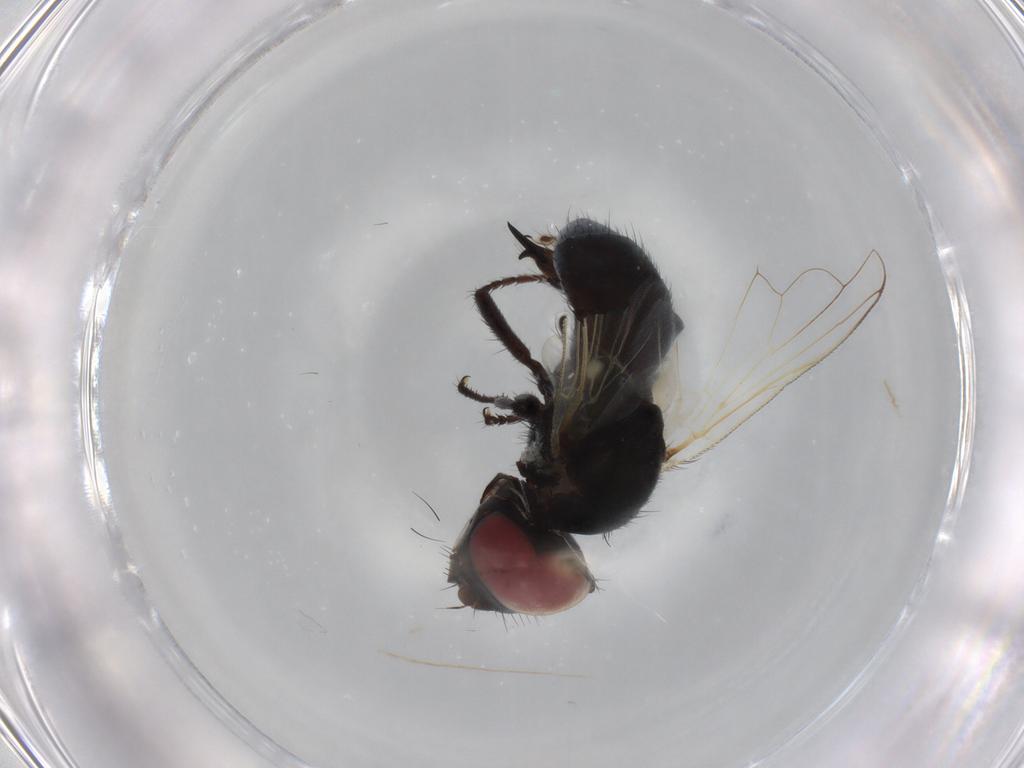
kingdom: Animalia
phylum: Arthropoda
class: Insecta
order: Diptera
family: Tachinidae
